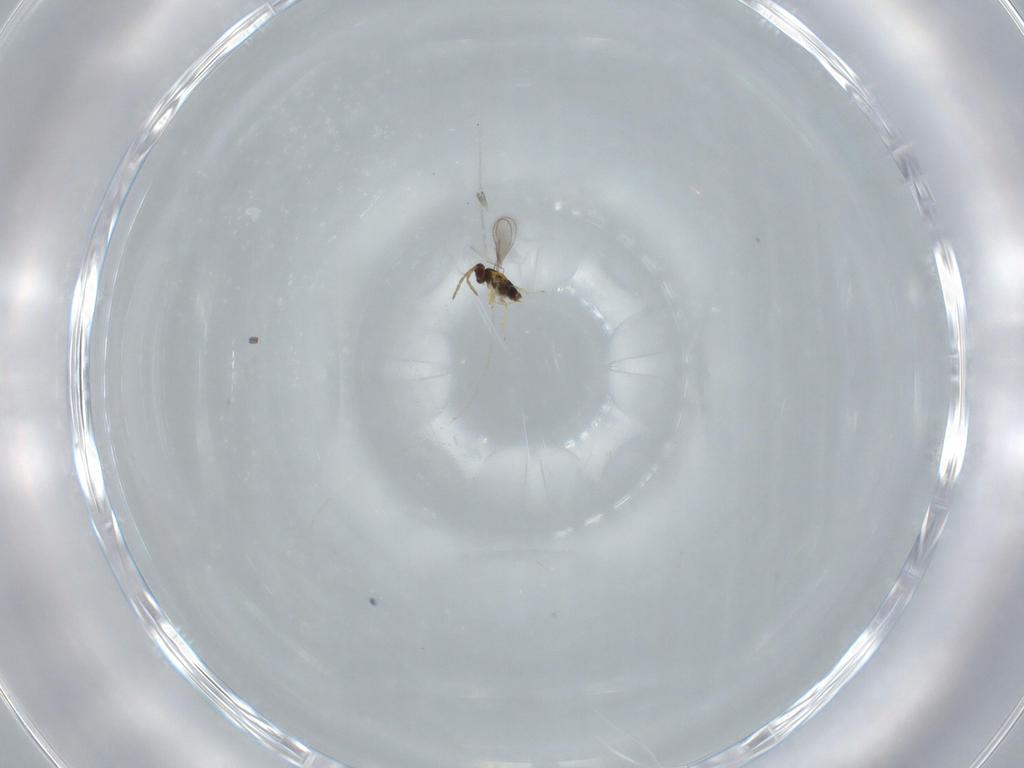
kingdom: Animalia
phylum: Arthropoda
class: Insecta
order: Hymenoptera
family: Aphelinidae
